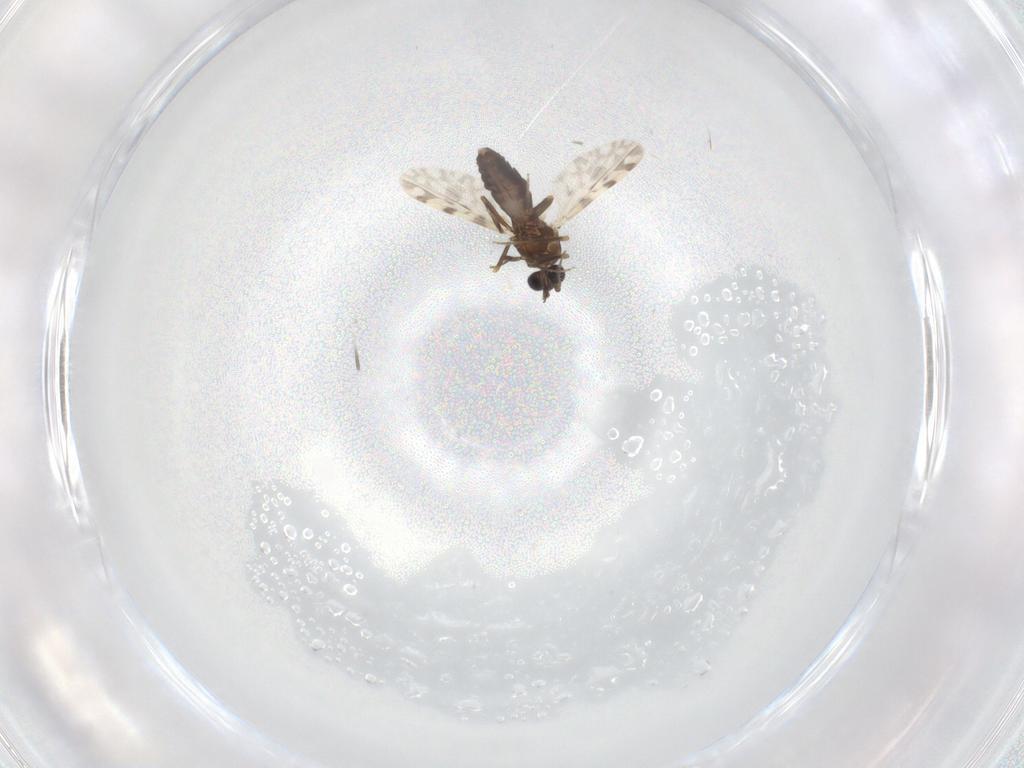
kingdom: Animalia
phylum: Arthropoda
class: Insecta
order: Diptera
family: Ceratopogonidae
